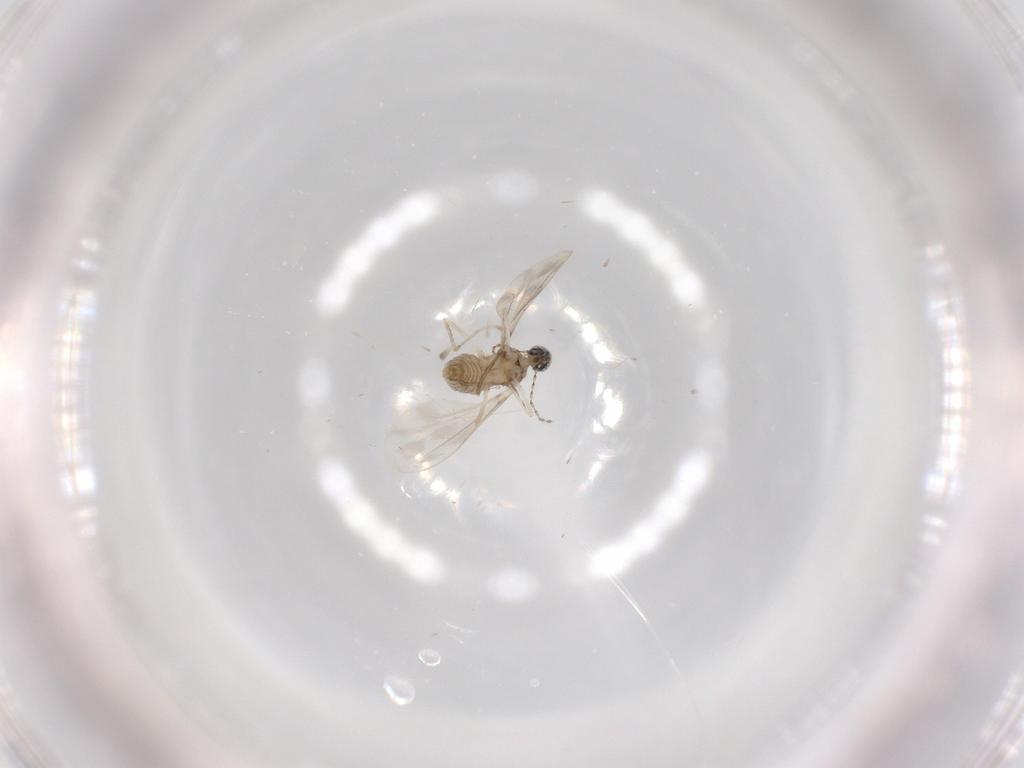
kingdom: Animalia
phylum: Arthropoda
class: Insecta
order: Diptera
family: Cecidomyiidae
